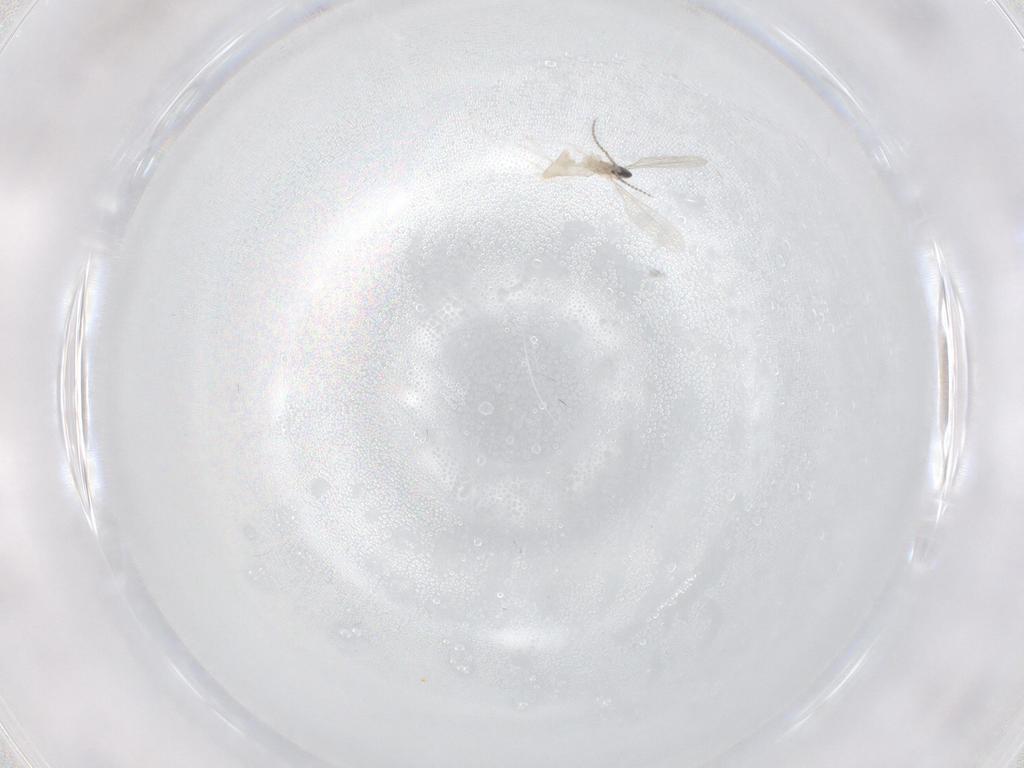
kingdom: Animalia
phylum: Arthropoda
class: Insecta
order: Diptera
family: Cecidomyiidae
